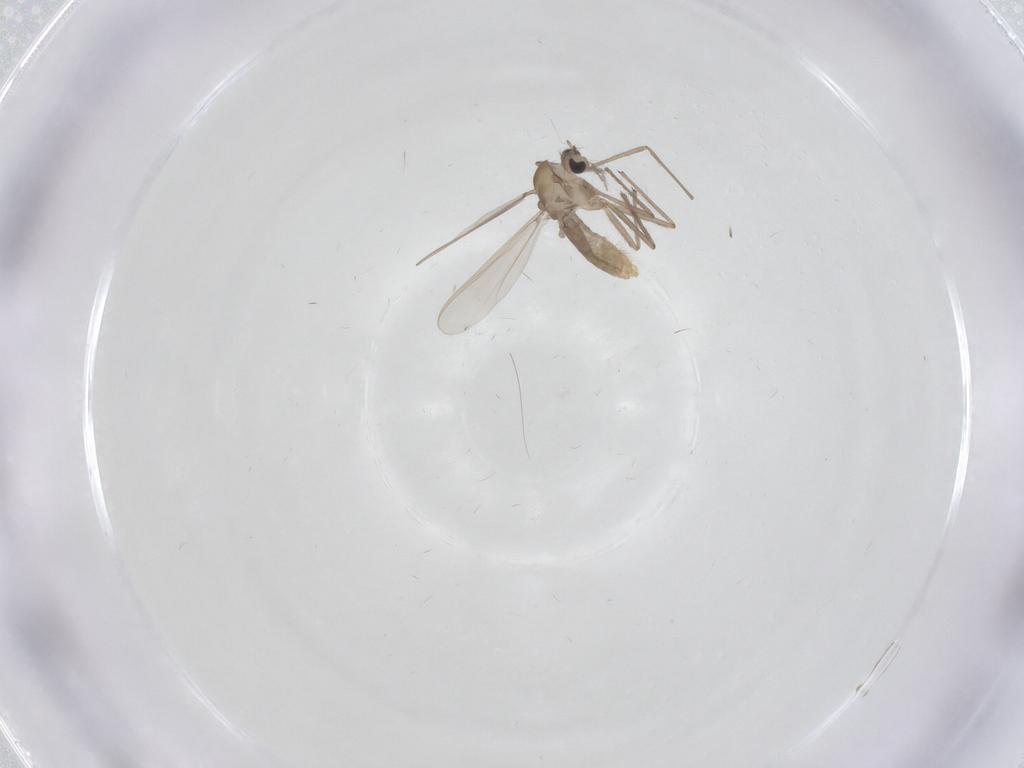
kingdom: Animalia
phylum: Arthropoda
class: Insecta
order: Diptera
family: Chironomidae
